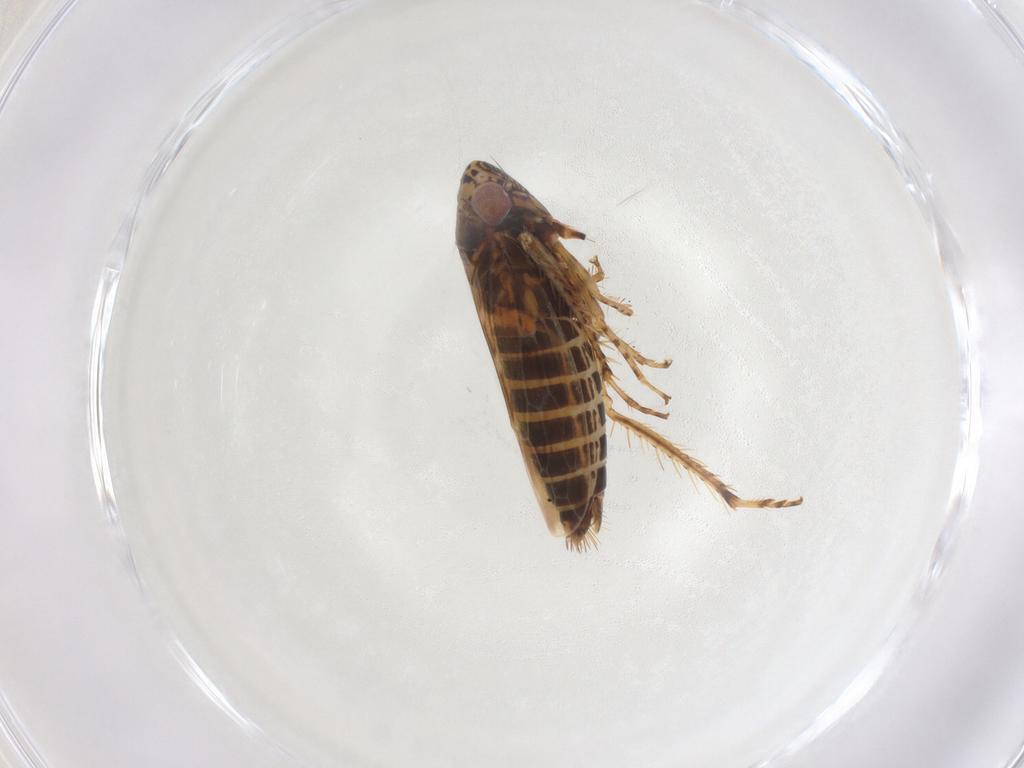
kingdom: Animalia
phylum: Arthropoda
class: Insecta
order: Hemiptera
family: Cicadellidae
